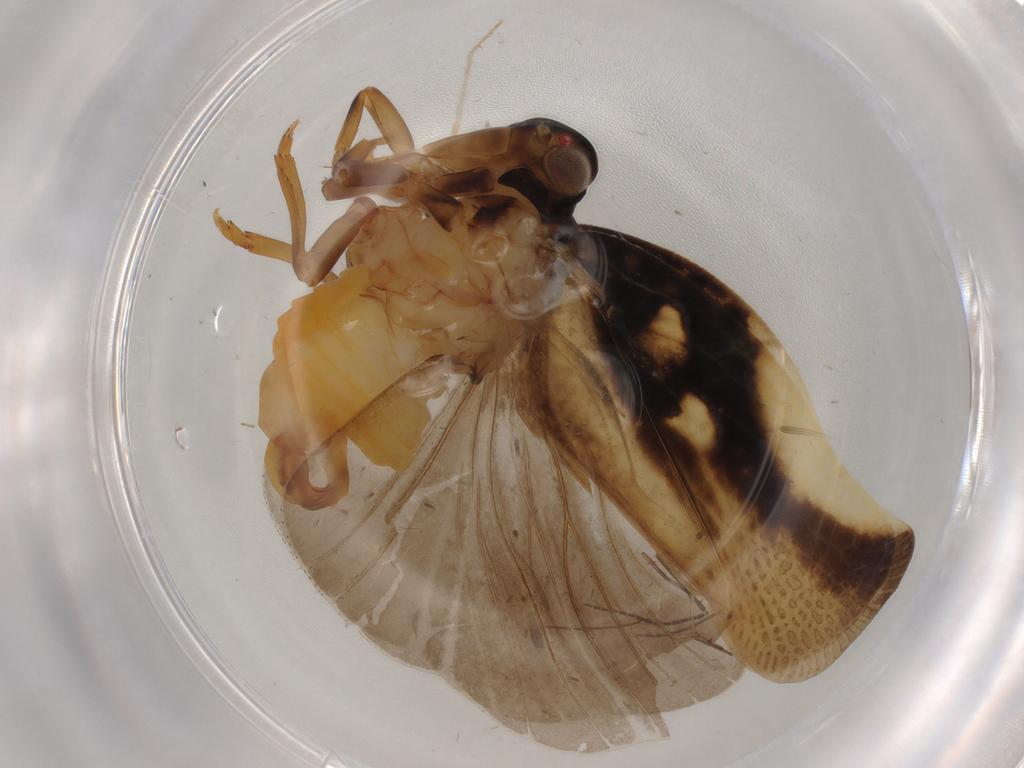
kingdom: Animalia
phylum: Arthropoda
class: Insecta
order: Hemiptera
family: Flatidae
